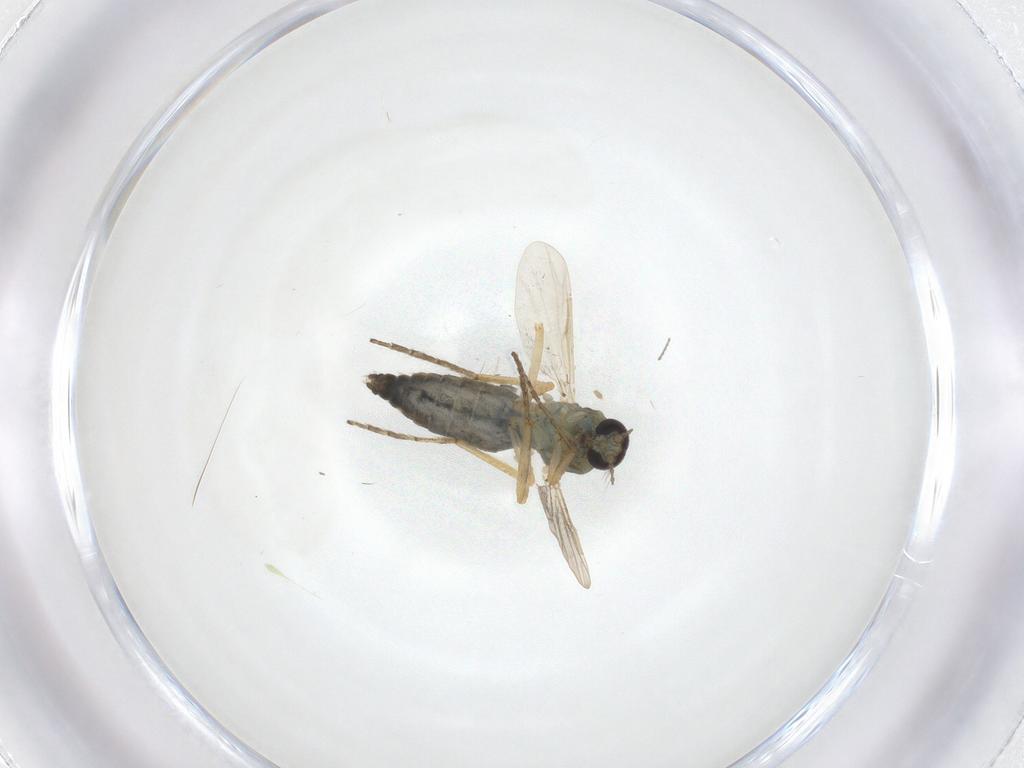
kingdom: Animalia
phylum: Arthropoda
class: Insecta
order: Diptera
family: Ceratopogonidae
